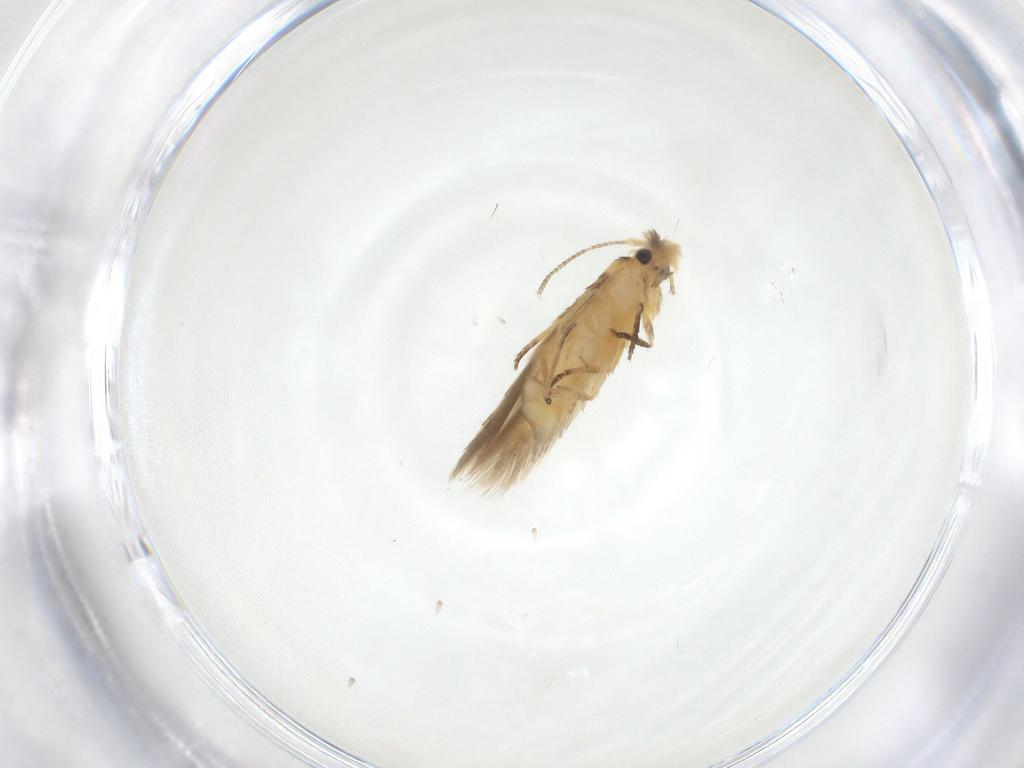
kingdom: Animalia
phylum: Arthropoda
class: Insecta
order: Lepidoptera
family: Nepticulidae
